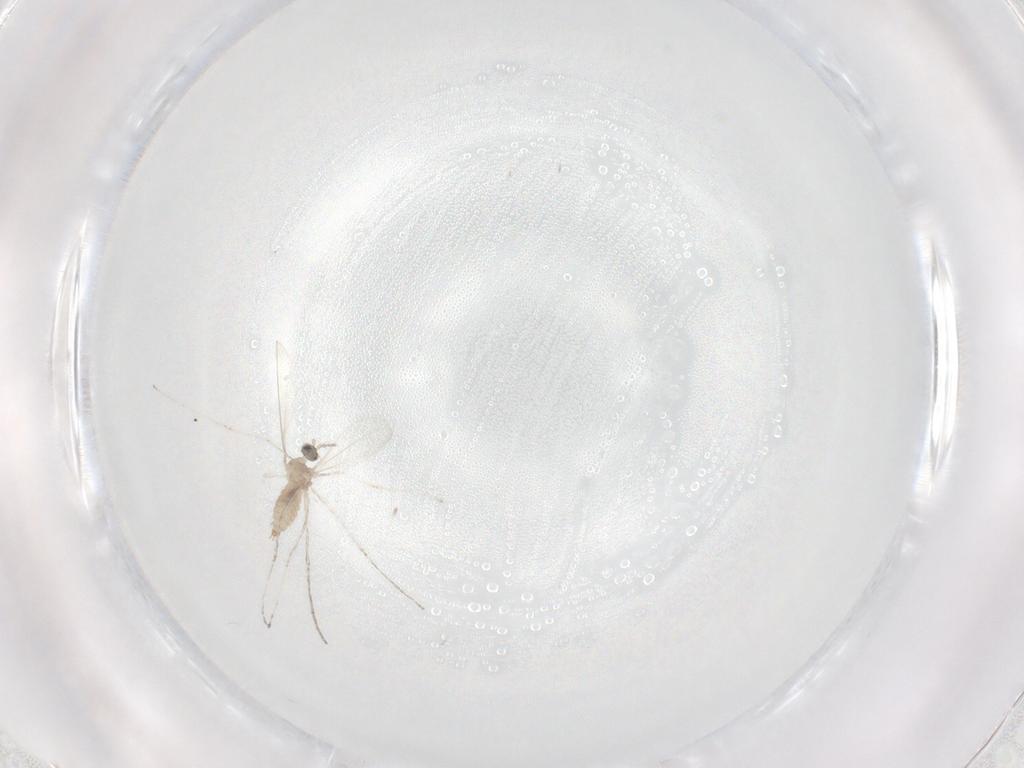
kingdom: Animalia
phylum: Arthropoda
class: Insecta
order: Diptera
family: Cecidomyiidae
